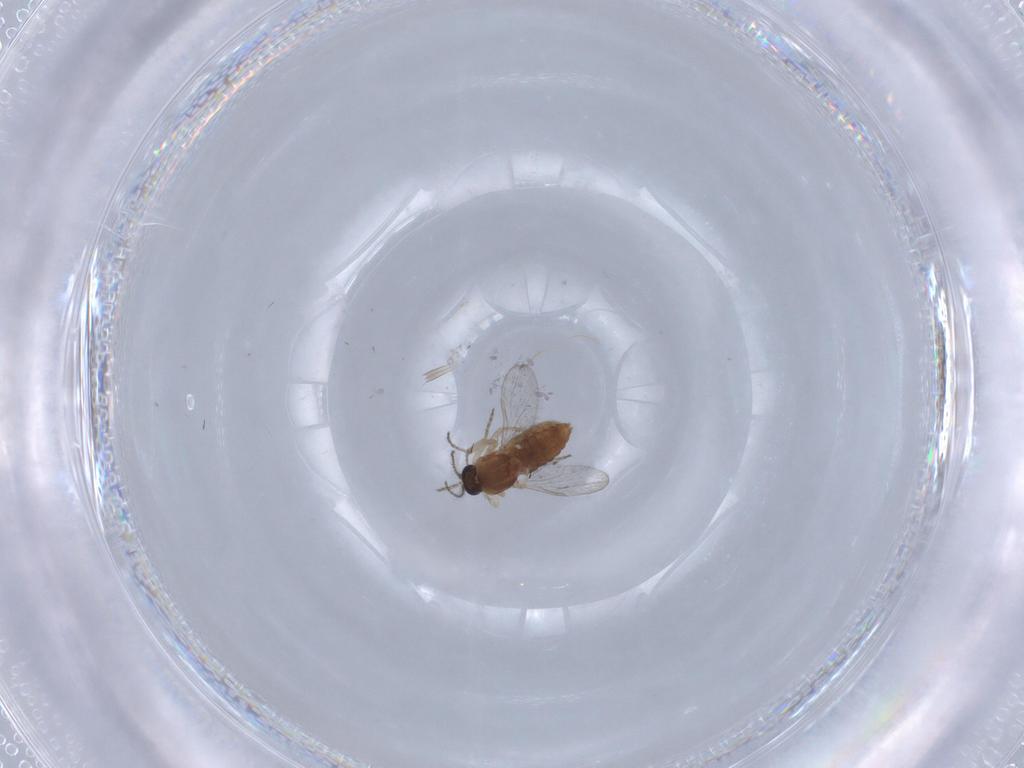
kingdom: Animalia
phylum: Arthropoda
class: Insecta
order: Diptera
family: Ceratopogonidae
